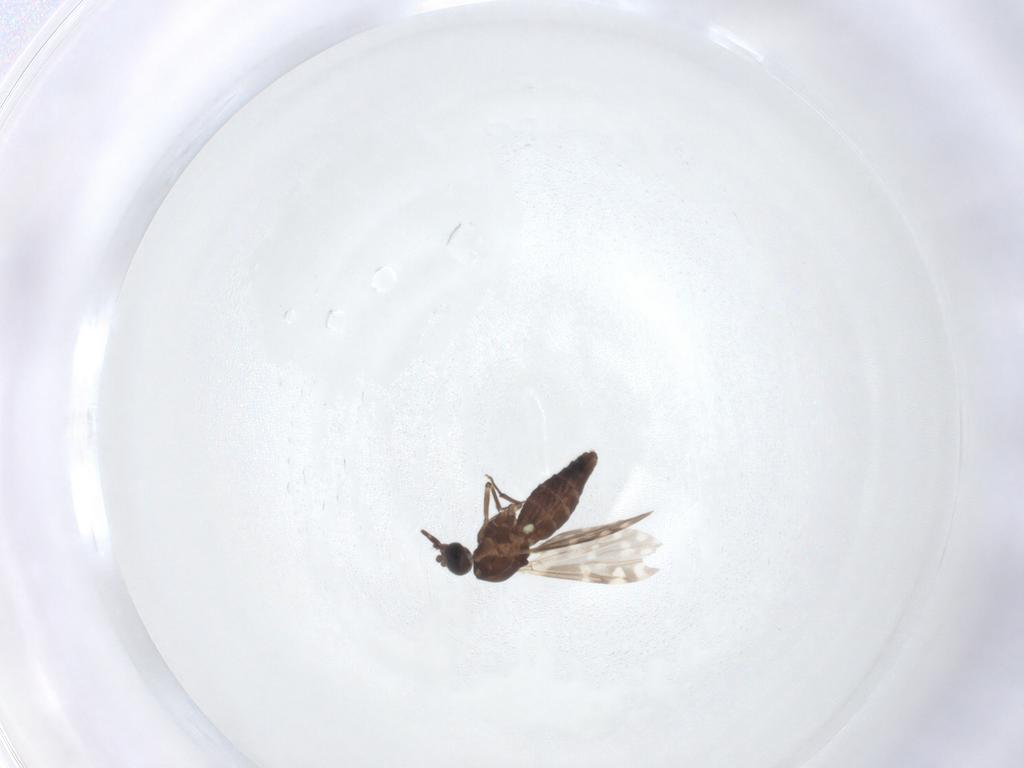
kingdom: Animalia
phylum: Arthropoda
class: Insecta
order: Diptera
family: Ceratopogonidae
